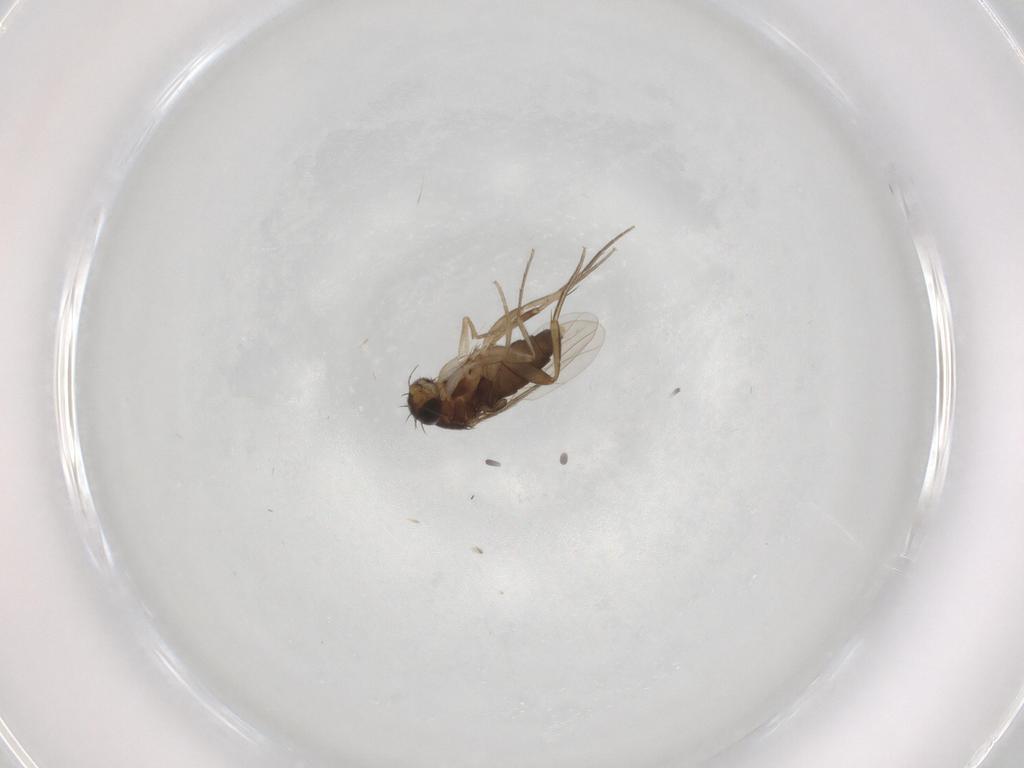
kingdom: Animalia
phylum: Arthropoda
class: Insecta
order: Diptera
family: Phoridae
